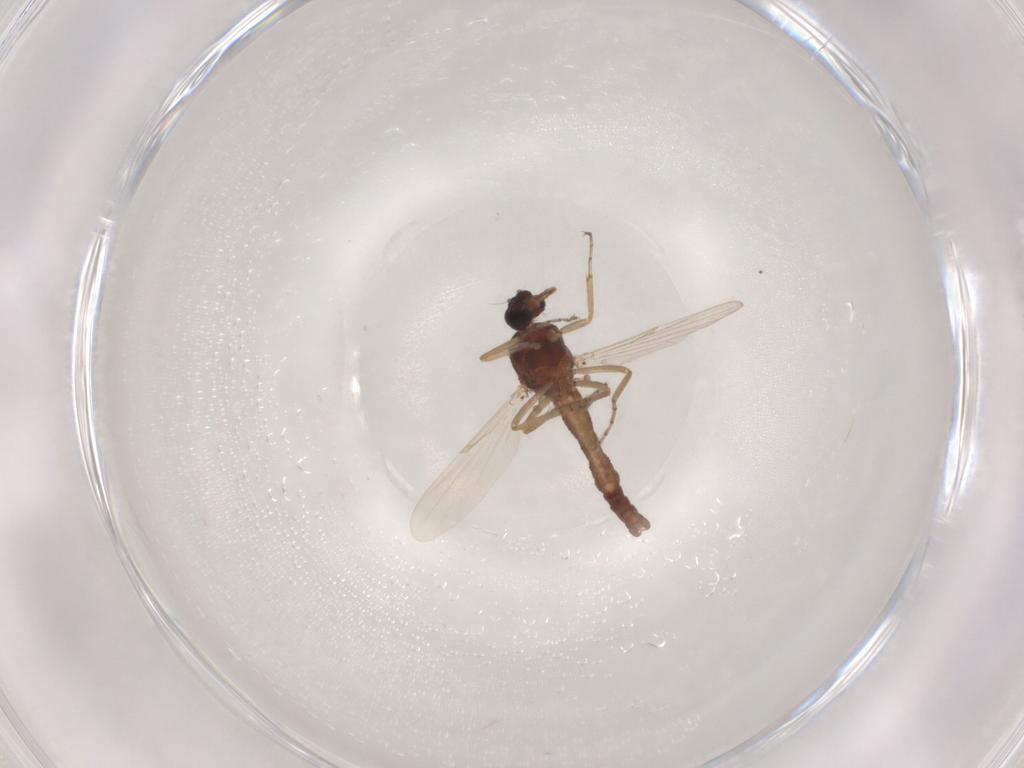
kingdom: Animalia
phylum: Arthropoda
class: Insecta
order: Diptera
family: Ceratopogonidae
